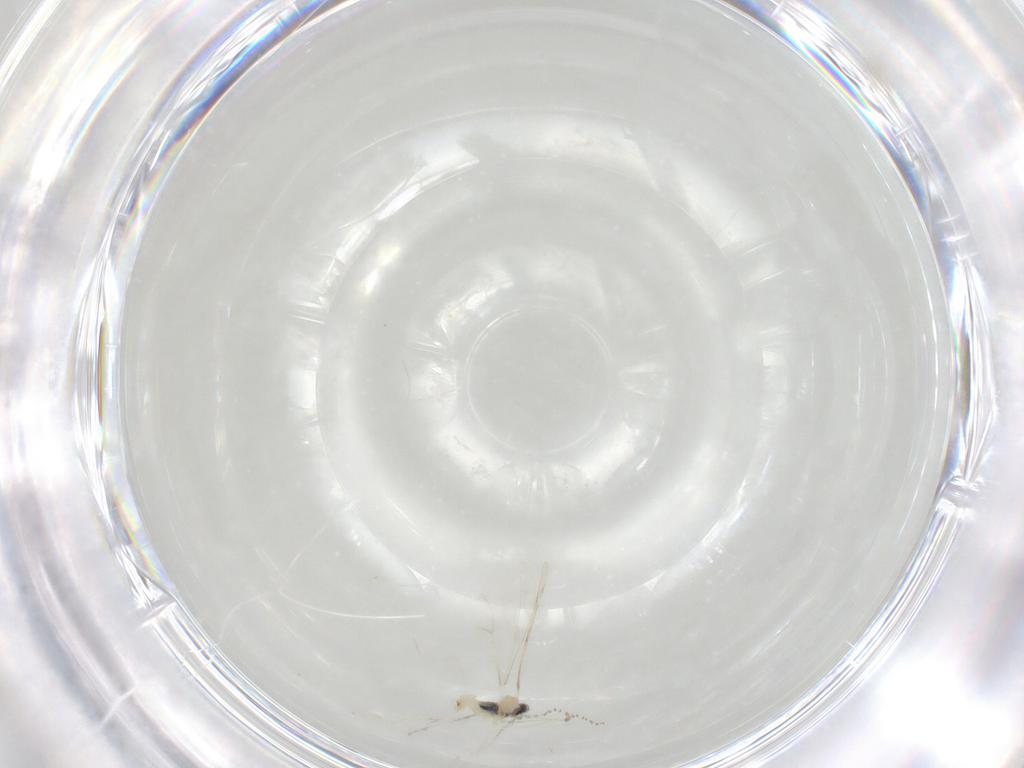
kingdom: Animalia
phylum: Arthropoda
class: Insecta
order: Diptera
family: Cecidomyiidae
